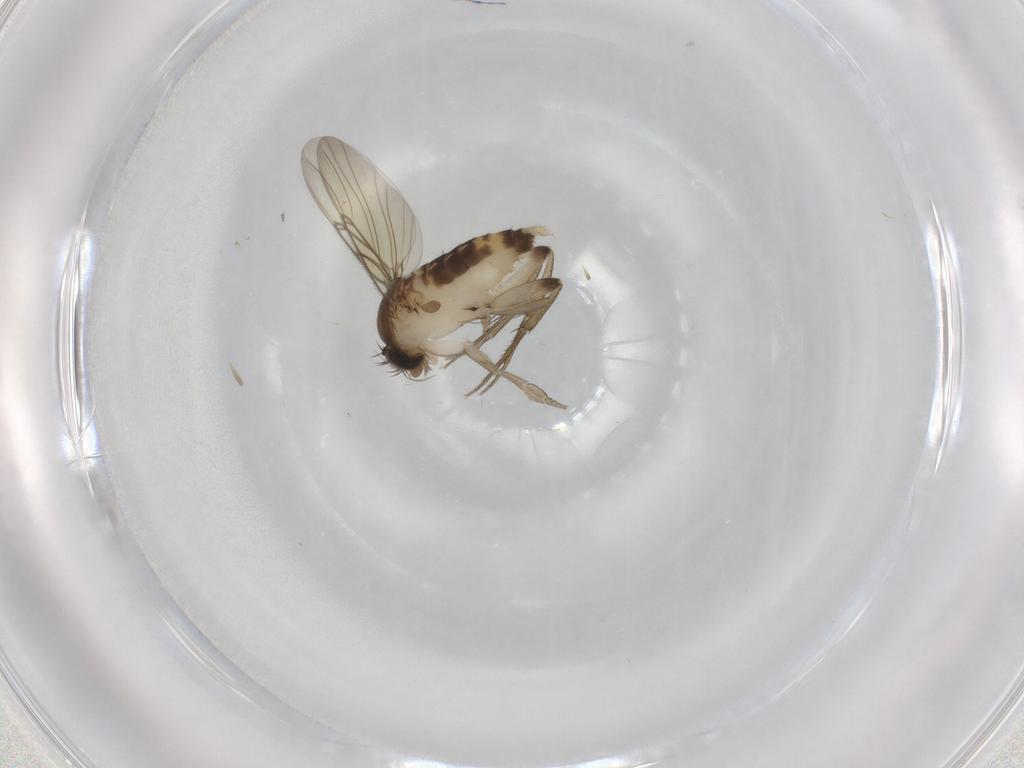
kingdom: Animalia
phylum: Arthropoda
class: Insecta
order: Diptera
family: Phoridae
